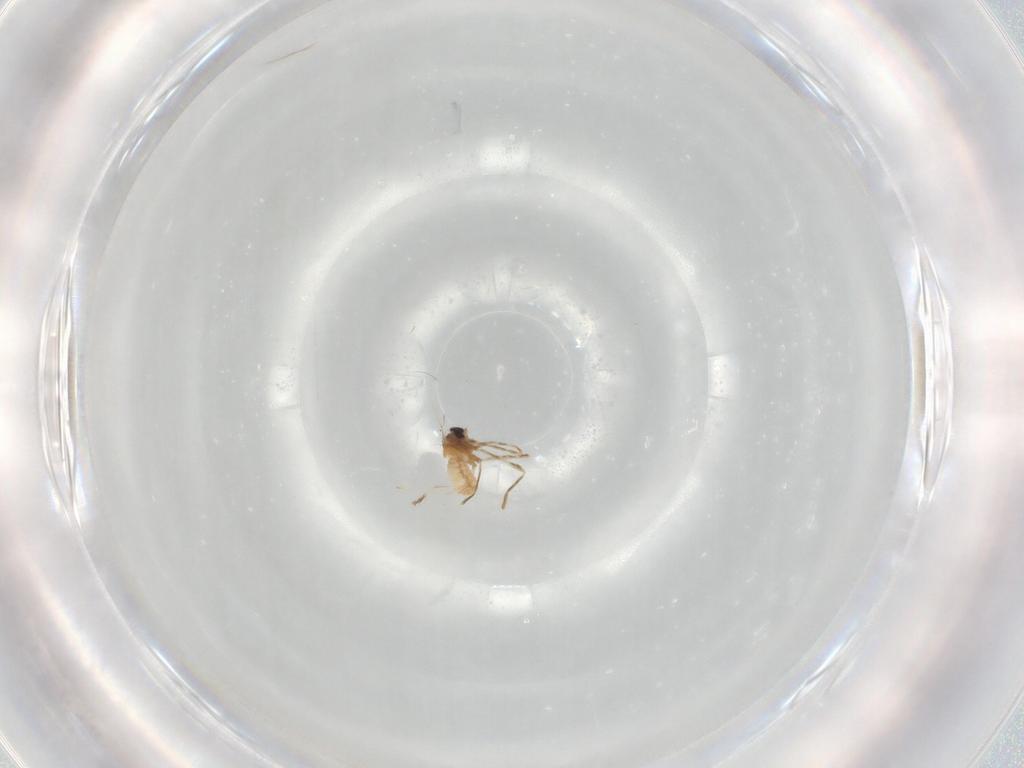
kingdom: Animalia
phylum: Arthropoda
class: Insecta
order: Diptera
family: Cecidomyiidae
